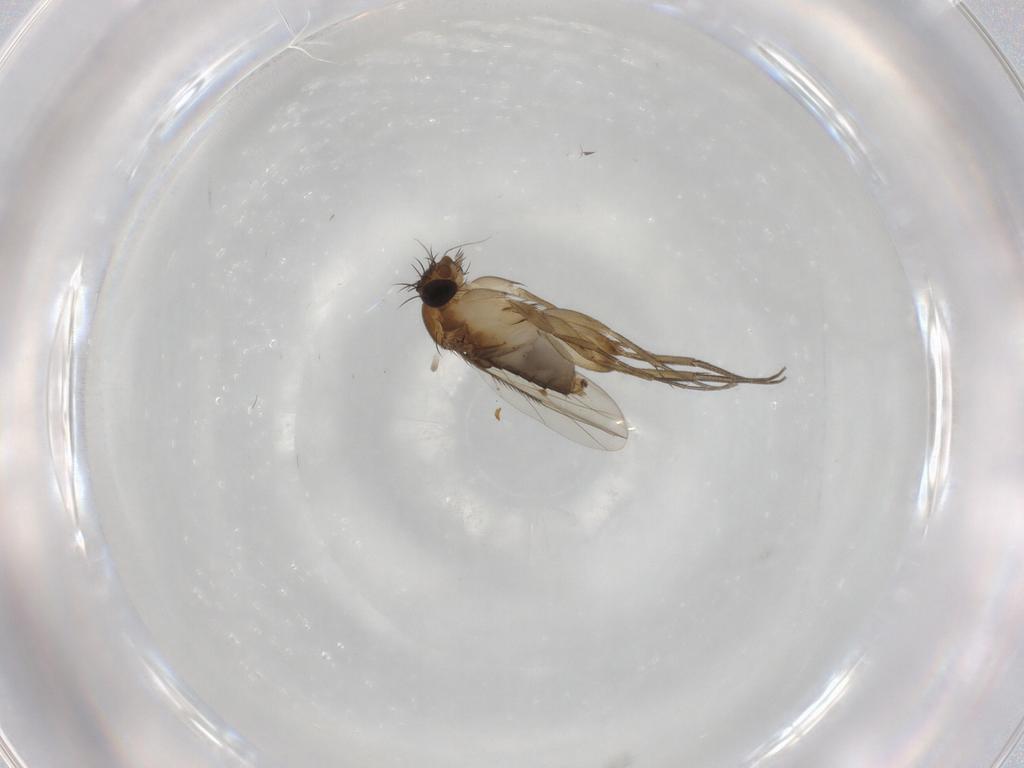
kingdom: Animalia
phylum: Arthropoda
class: Insecta
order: Diptera
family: Phoridae
